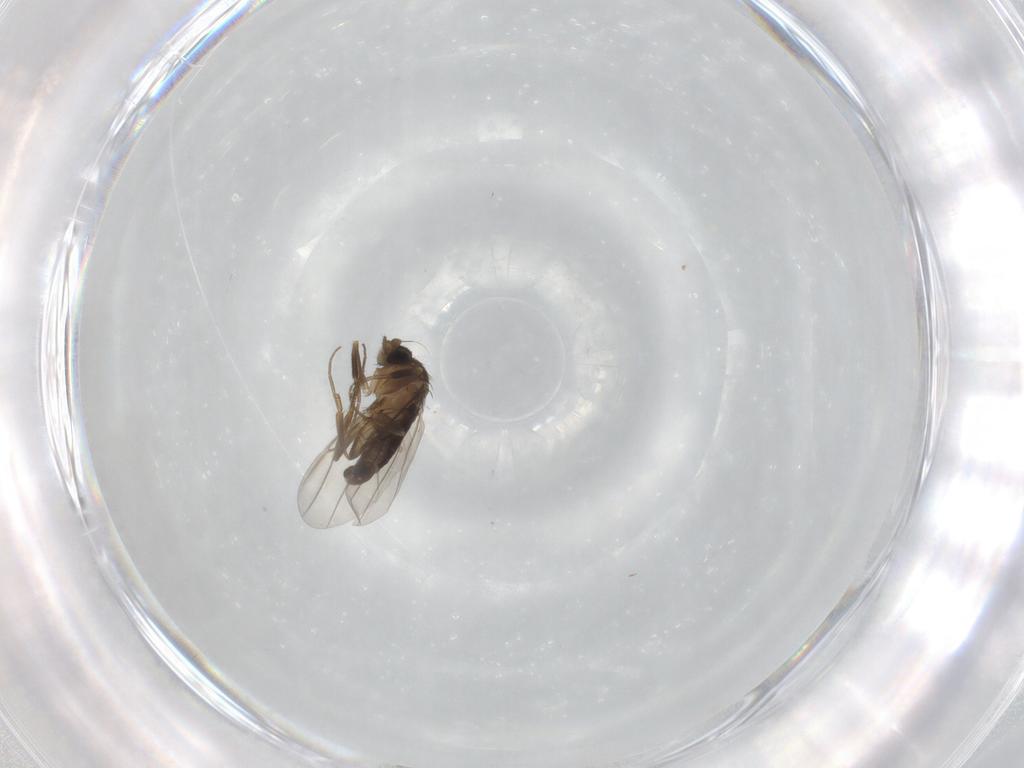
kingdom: Animalia
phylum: Arthropoda
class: Insecta
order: Diptera
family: Phoridae
